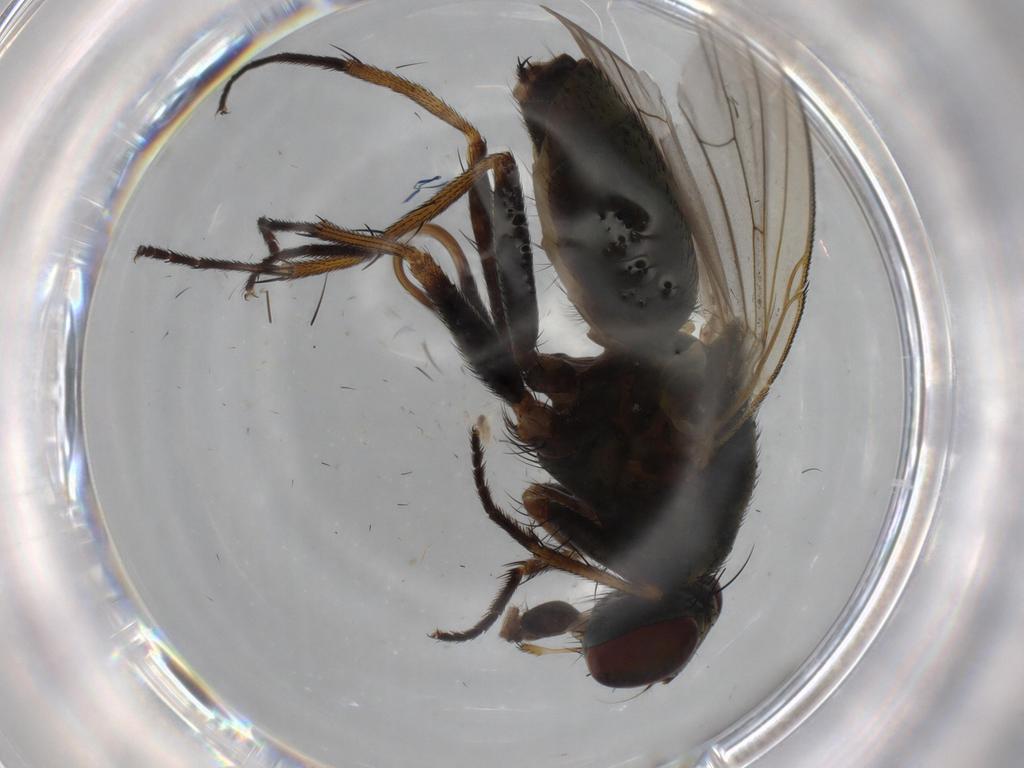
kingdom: Animalia
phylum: Arthropoda
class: Insecta
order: Diptera
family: Muscidae
